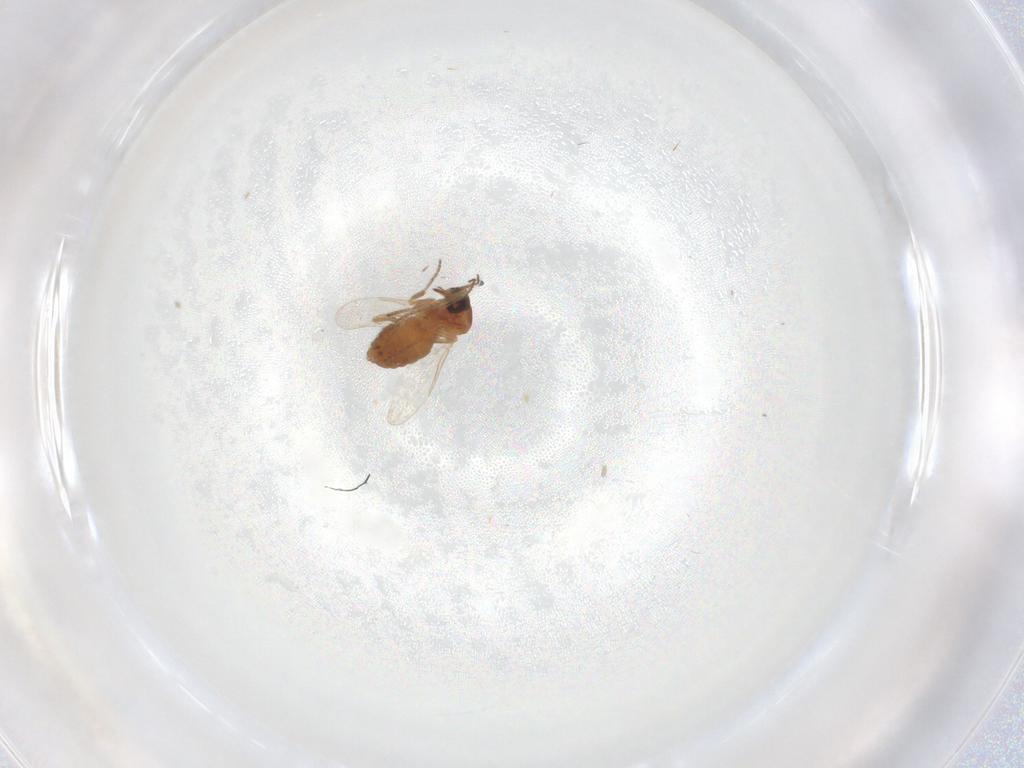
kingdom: Animalia
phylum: Arthropoda
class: Insecta
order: Diptera
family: Ceratopogonidae
